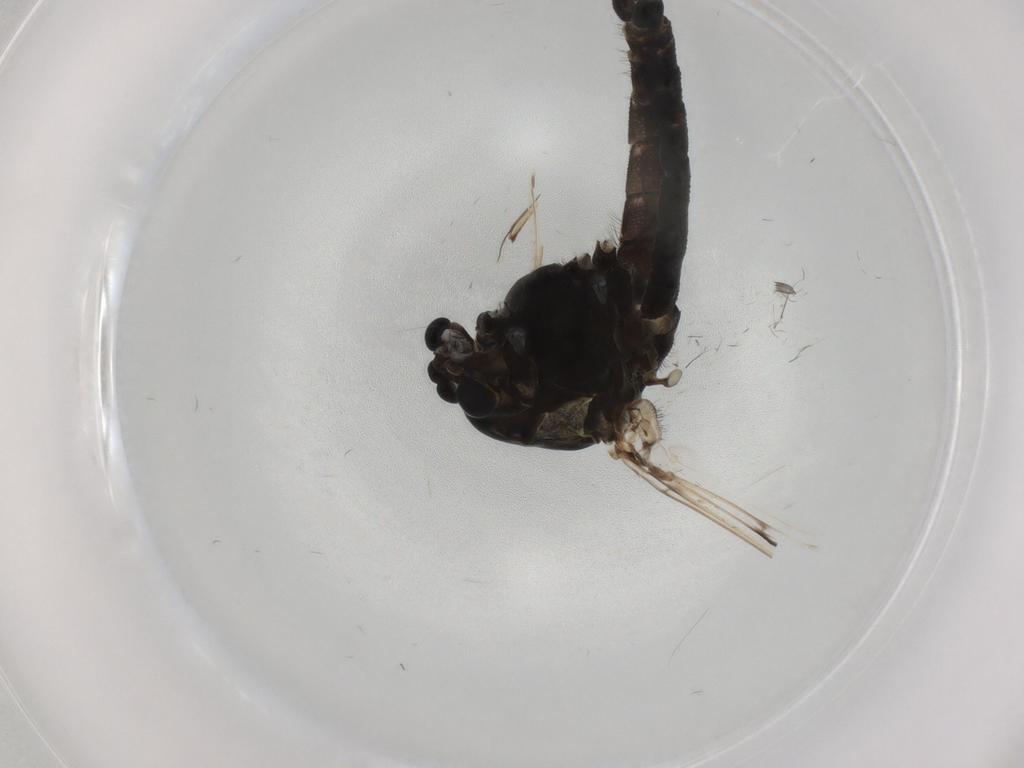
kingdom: Animalia
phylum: Arthropoda
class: Insecta
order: Diptera
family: Chironomidae
